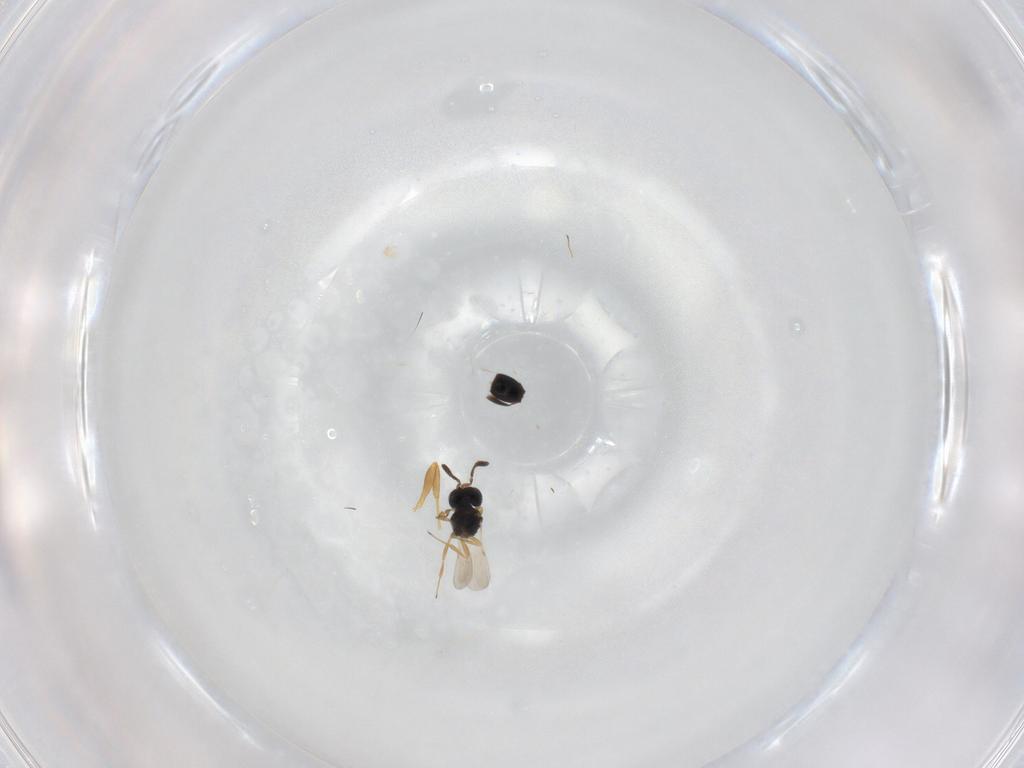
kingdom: Animalia
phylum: Arthropoda
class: Insecta
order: Hymenoptera
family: Scelionidae
